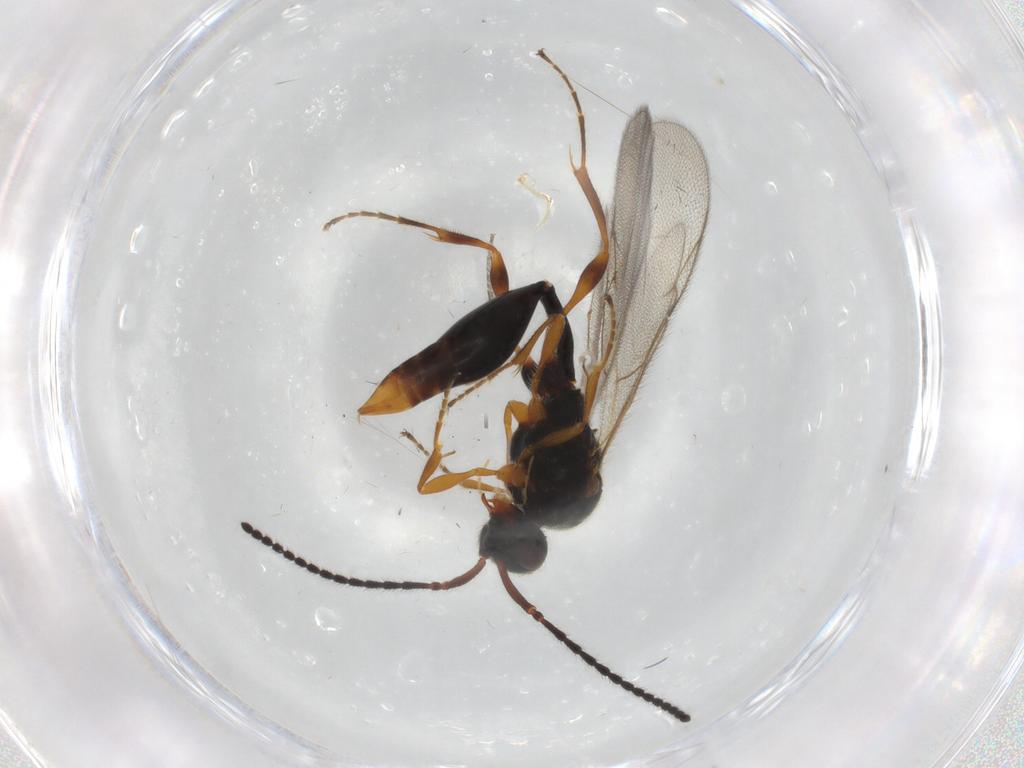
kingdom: Animalia
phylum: Arthropoda
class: Insecta
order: Hymenoptera
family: Diapriidae
